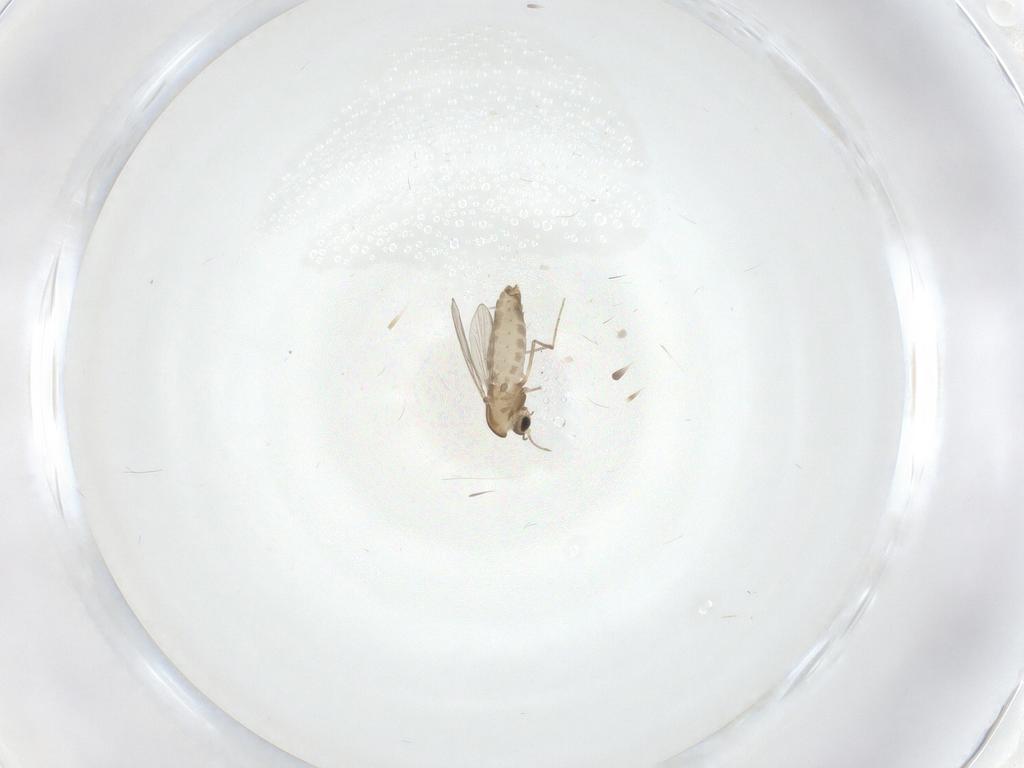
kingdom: Animalia
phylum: Arthropoda
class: Insecta
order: Diptera
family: Chironomidae
